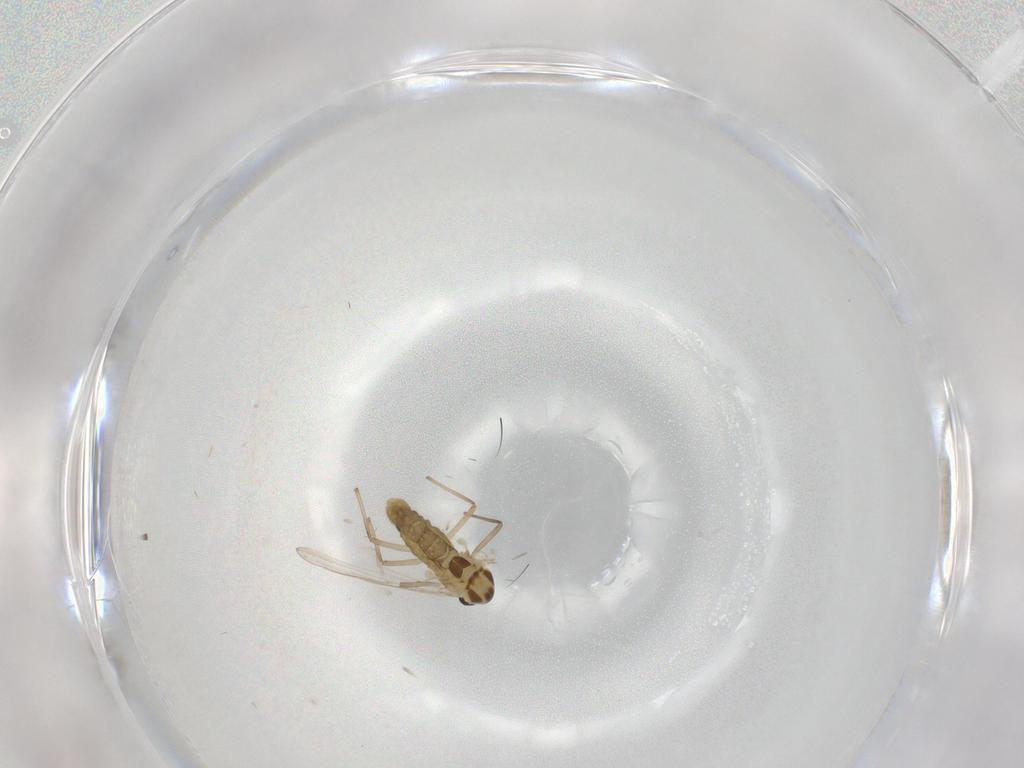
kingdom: Animalia
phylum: Arthropoda
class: Insecta
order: Diptera
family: Chironomidae
